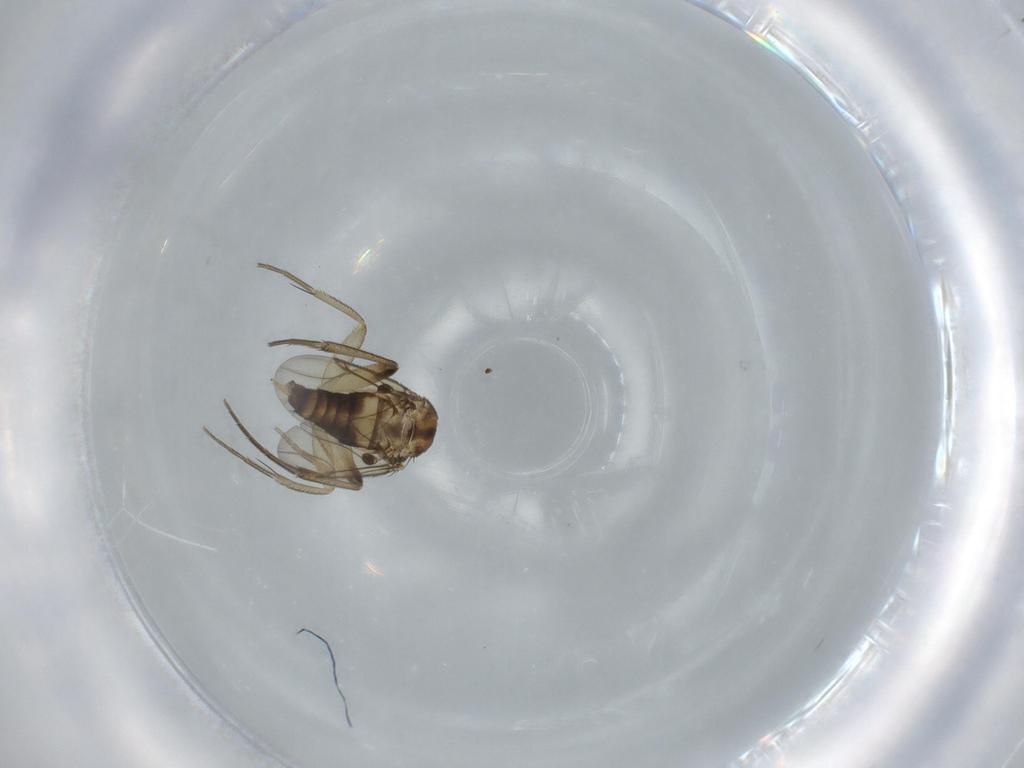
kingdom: Animalia
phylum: Arthropoda
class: Insecta
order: Diptera
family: Phoridae
